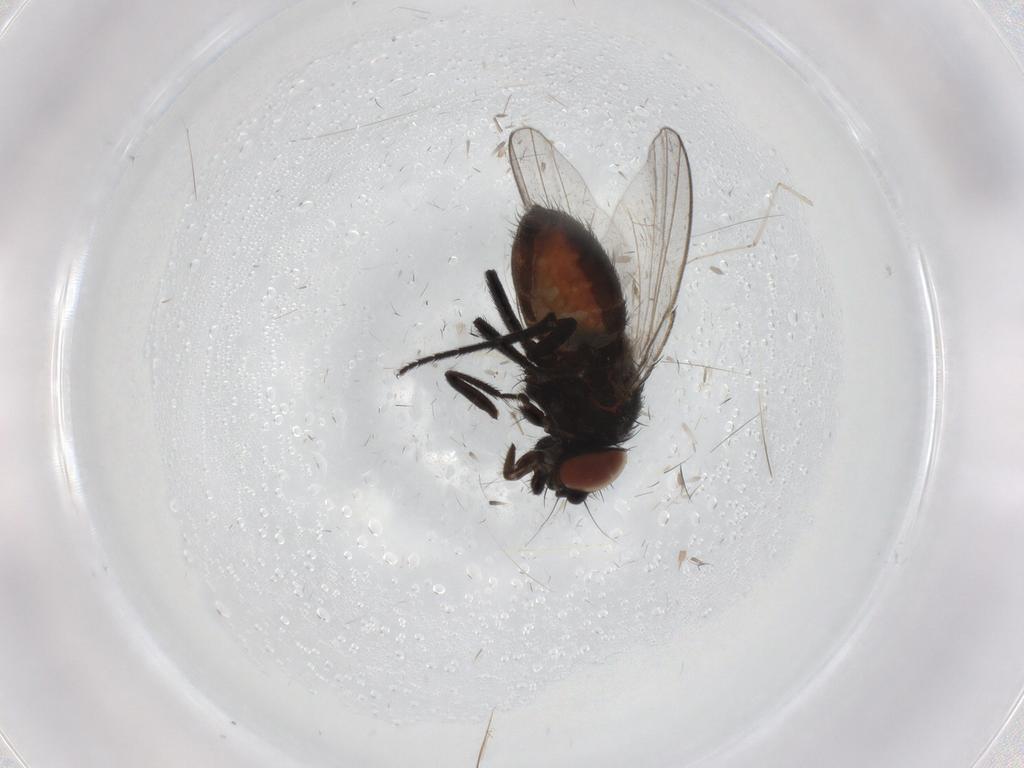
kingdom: Animalia
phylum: Arthropoda
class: Insecta
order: Diptera
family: Milichiidae
